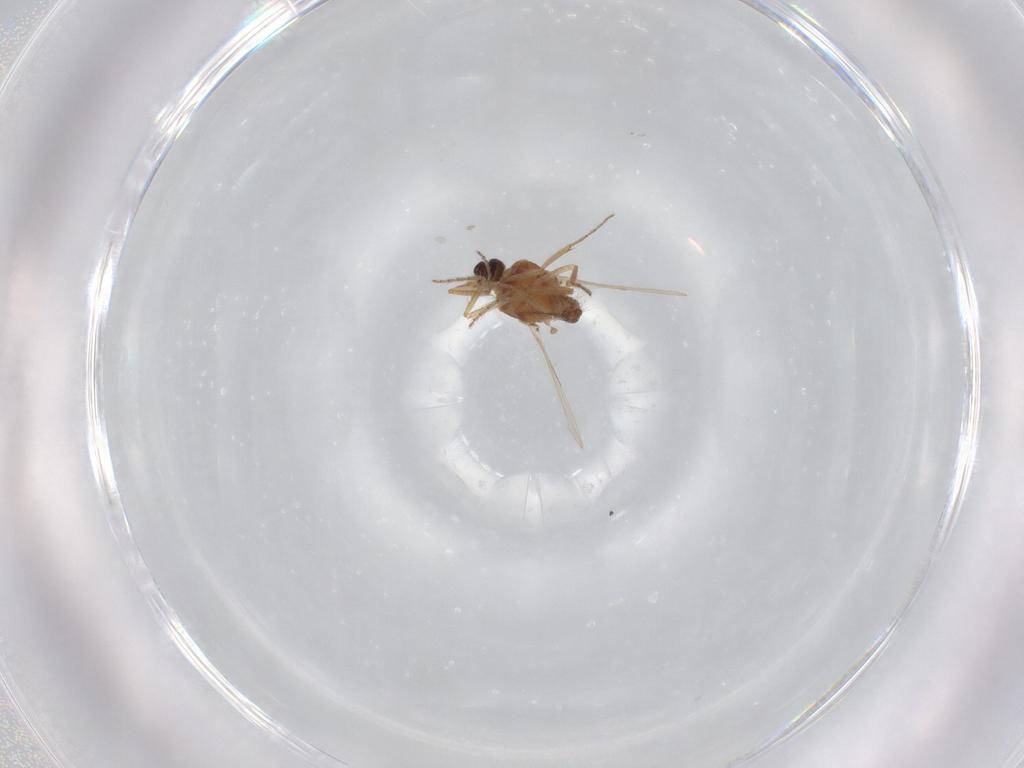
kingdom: Animalia
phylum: Arthropoda
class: Insecta
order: Diptera
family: Ceratopogonidae
